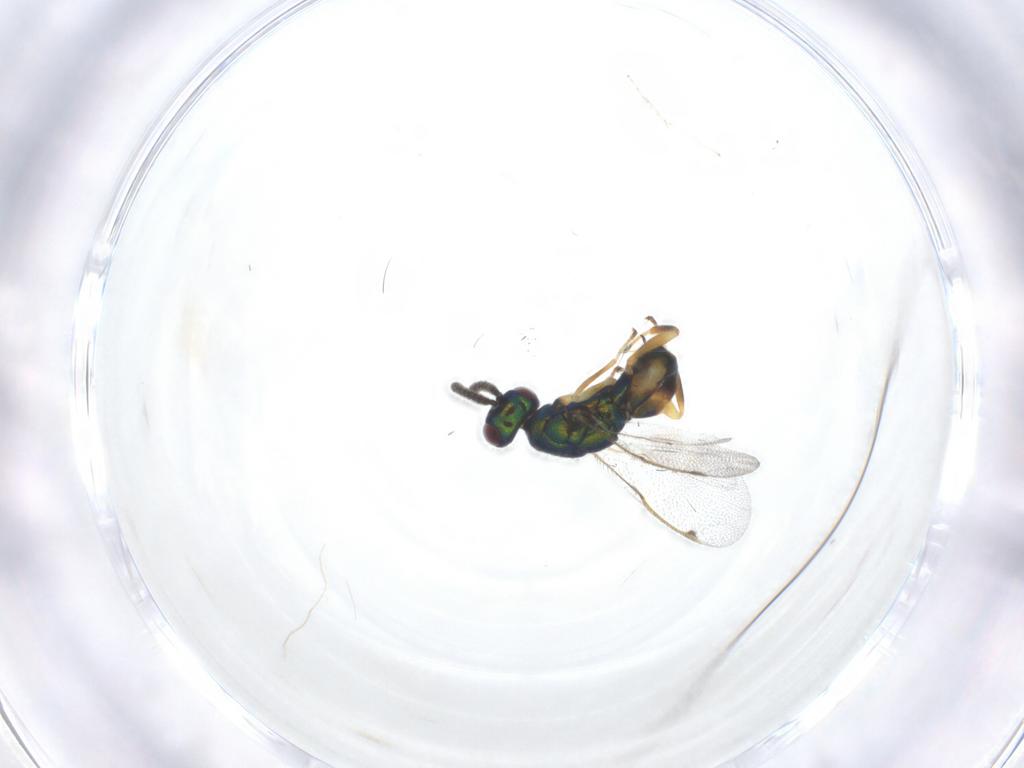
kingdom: Animalia
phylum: Arthropoda
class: Insecta
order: Hymenoptera
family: Torymidae
